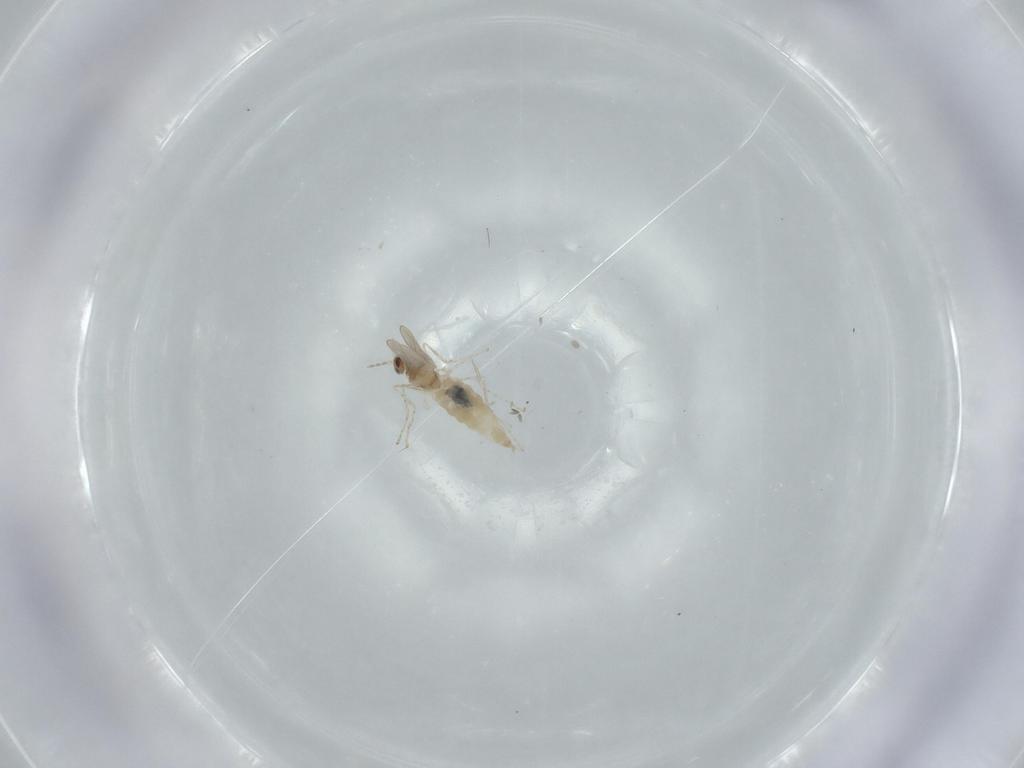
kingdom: Animalia
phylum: Arthropoda
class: Insecta
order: Diptera
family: Cecidomyiidae
